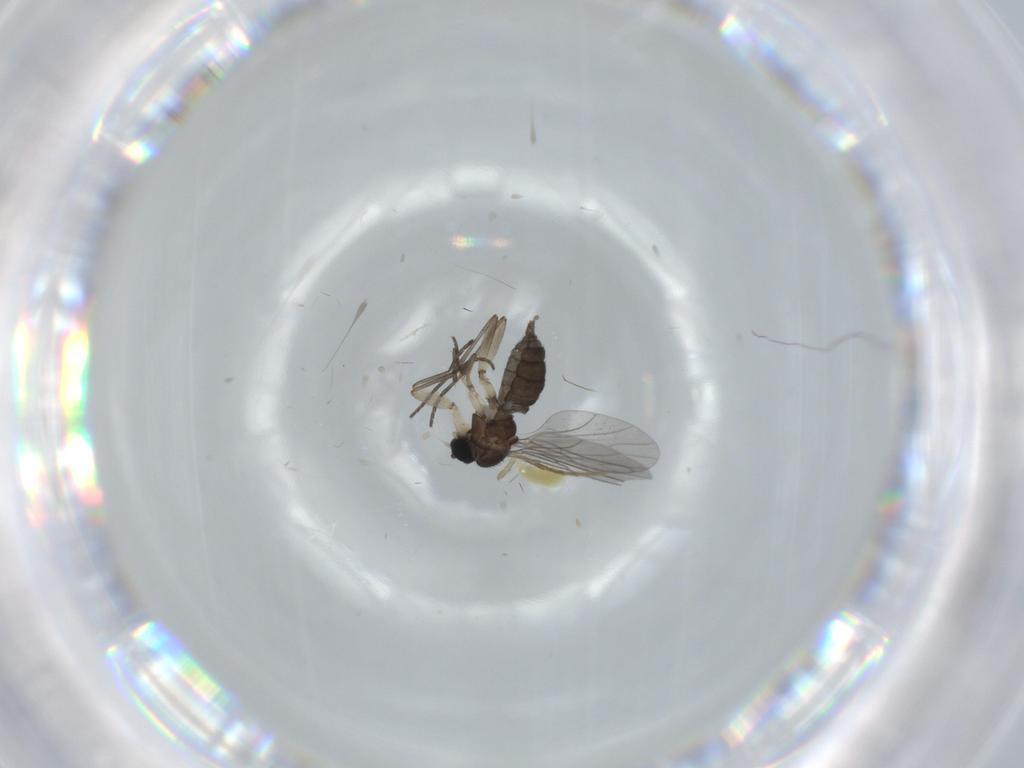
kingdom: Animalia
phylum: Arthropoda
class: Insecta
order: Diptera
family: Sciaridae
